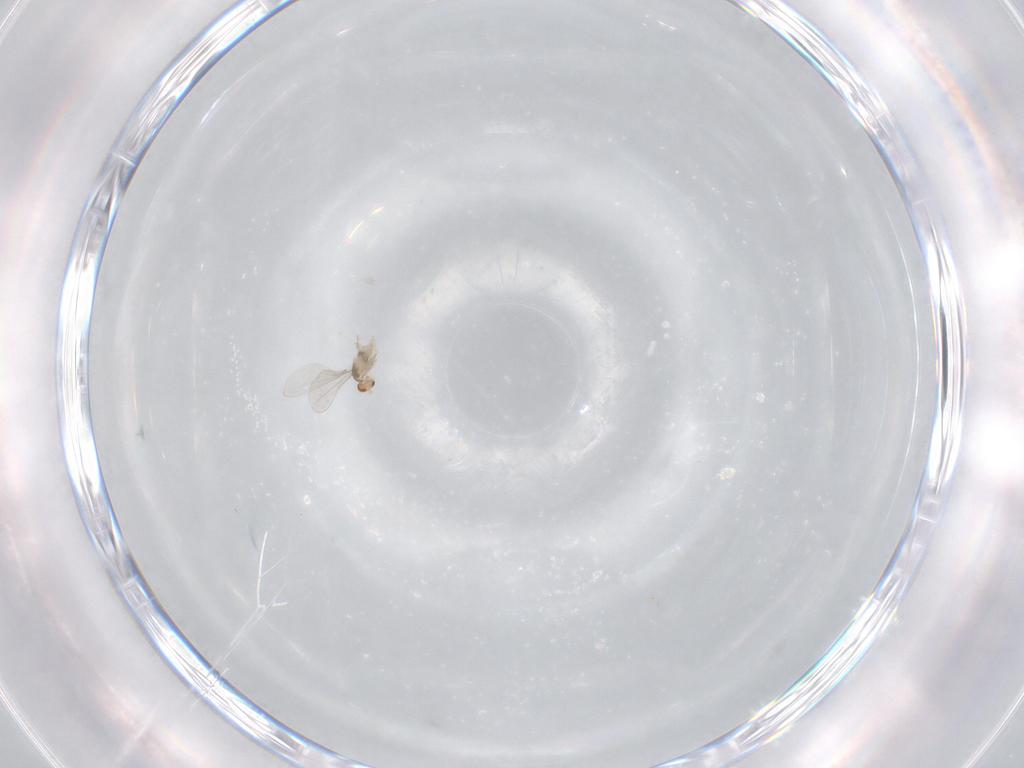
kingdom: Animalia
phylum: Arthropoda
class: Insecta
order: Diptera
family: Cecidomyiidae
